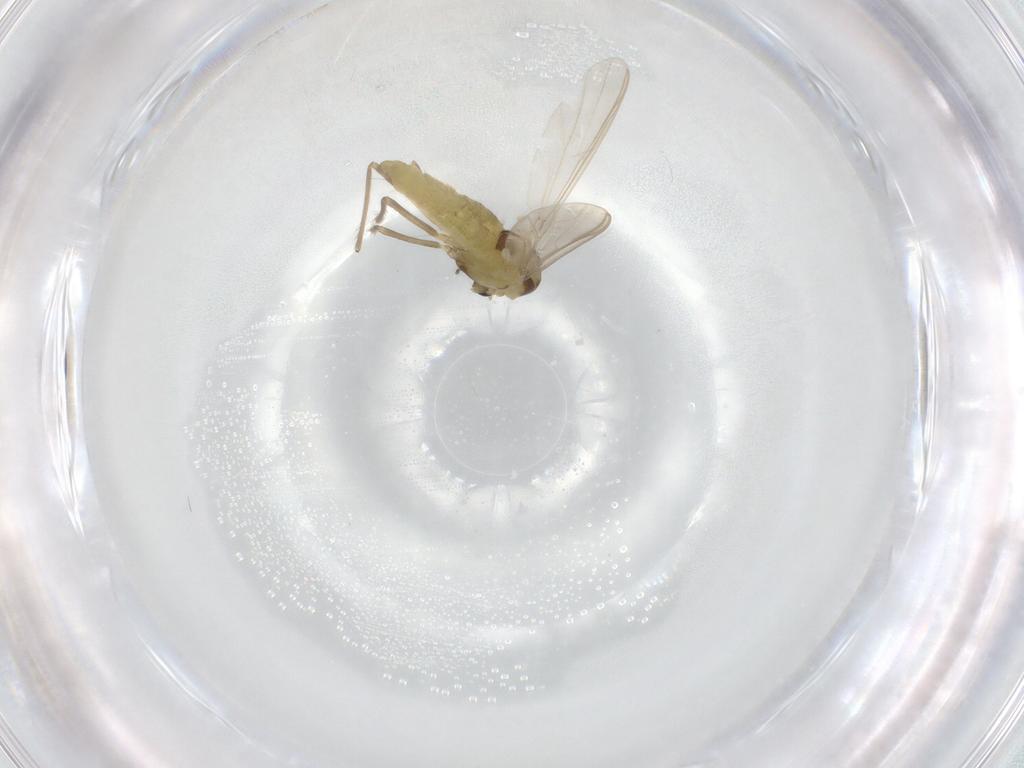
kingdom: Animalia
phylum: Arthropoda
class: Insecta
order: Diptera
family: Chironomidae
